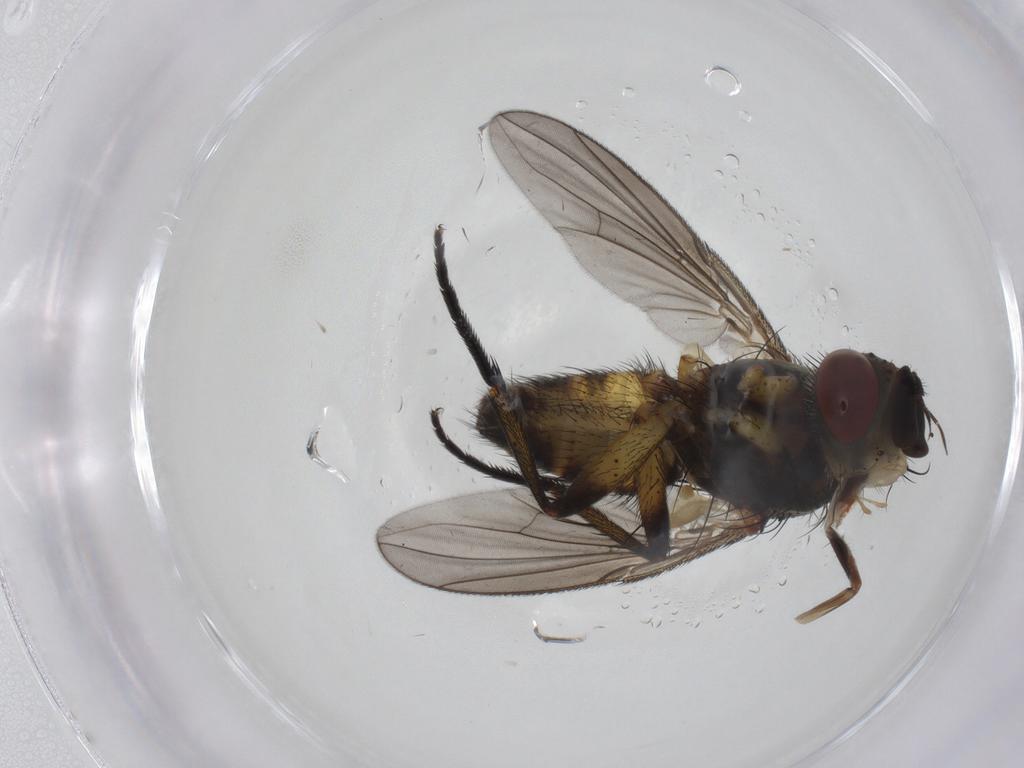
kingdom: Animalia
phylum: Arthropoda
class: Insecta
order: Diptera
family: Tachinidae
